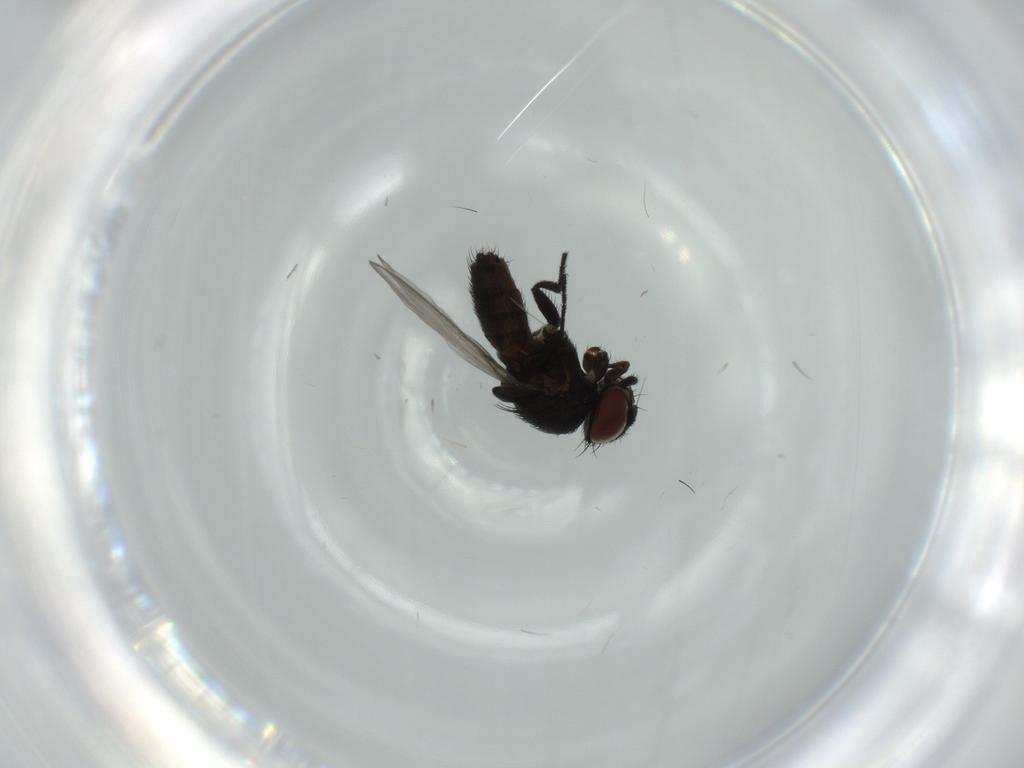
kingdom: Animalia
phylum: Arthropoda
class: Insecta
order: Diptera
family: Milichiidae
